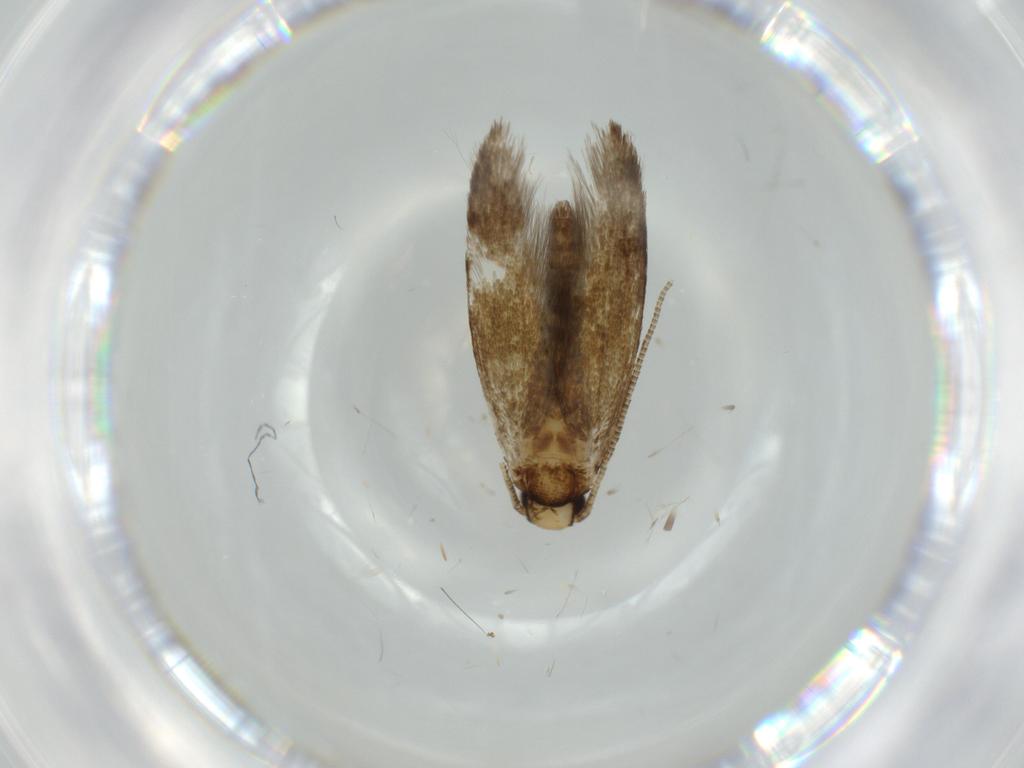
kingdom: Animalia
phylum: Arthropoda
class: Insecta
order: Lepidoptera
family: Tineidae
